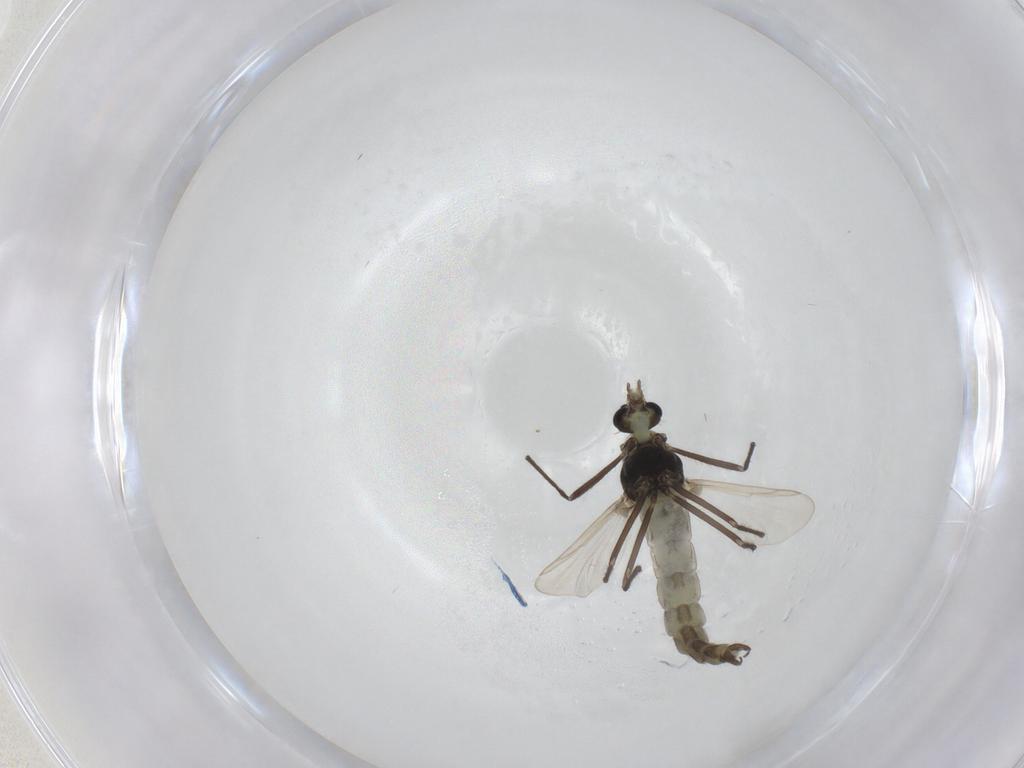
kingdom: Animalia
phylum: Arthropoda
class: Insecta
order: Diptera
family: Chironomidae
